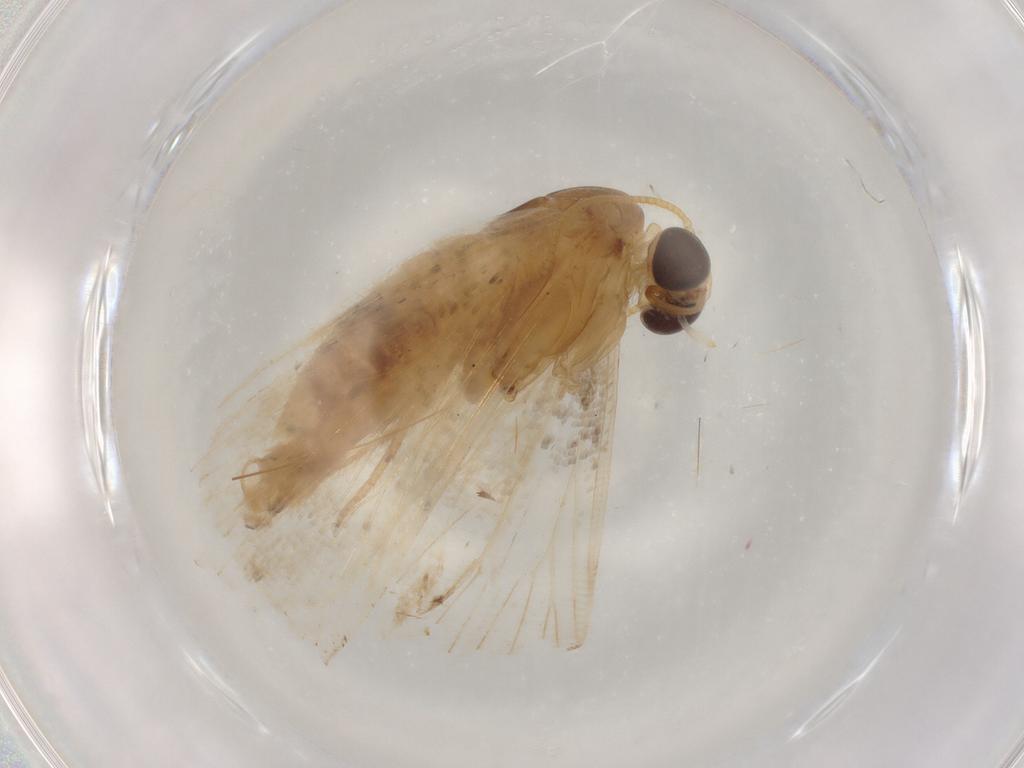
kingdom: Animalia
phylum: Arthropoda
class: Insecta
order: Lepidoptera
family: Noctuidae
